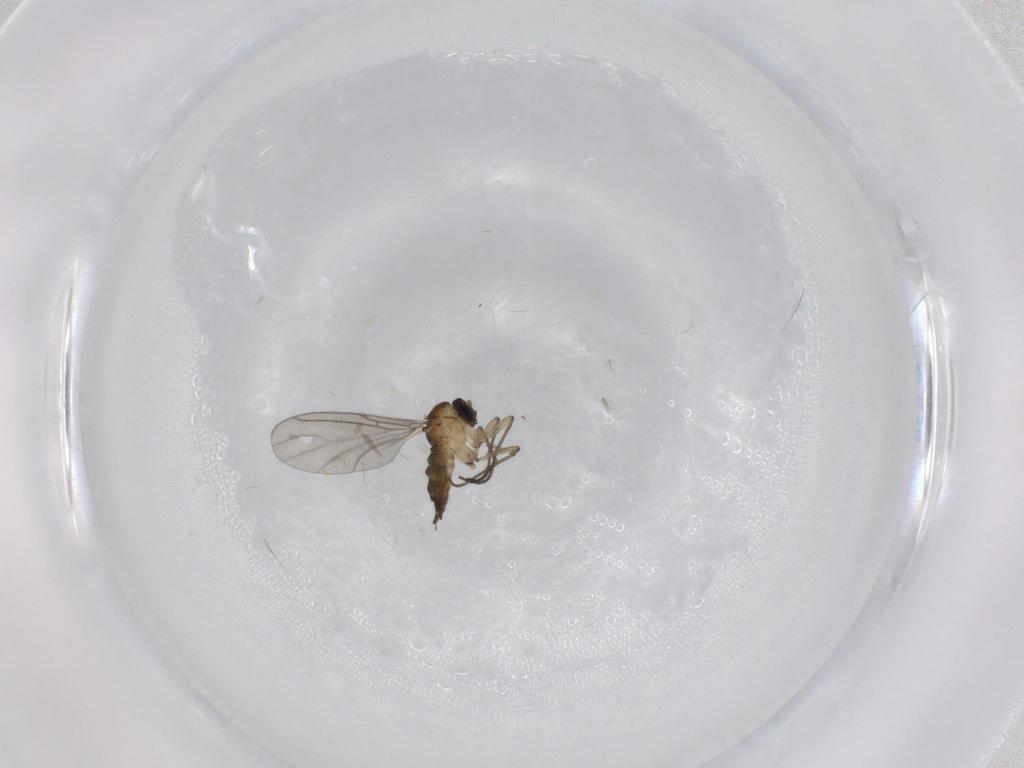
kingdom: Animalia
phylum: Arthropoda
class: Insecta
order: Diptera
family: Sciaridae
